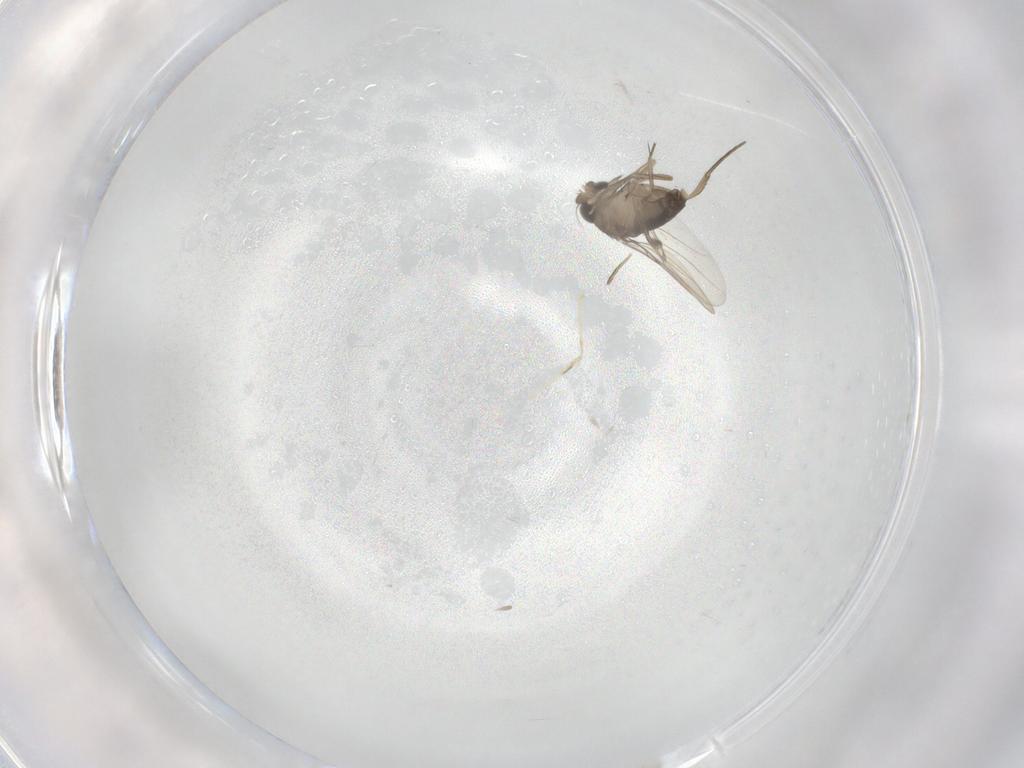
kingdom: Animalia
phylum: Arthropoda
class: Insecta
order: Diptera
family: Phoridae
